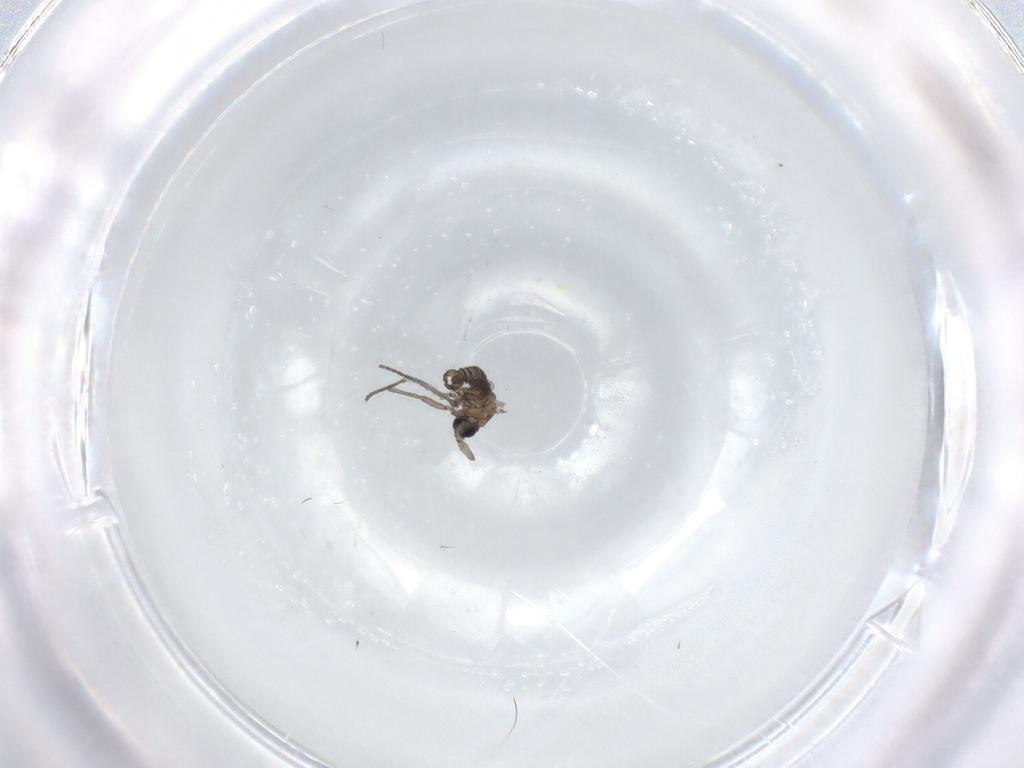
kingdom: Animalia
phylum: Arthropoda
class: Insecta
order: Diptera
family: Sciaridae
